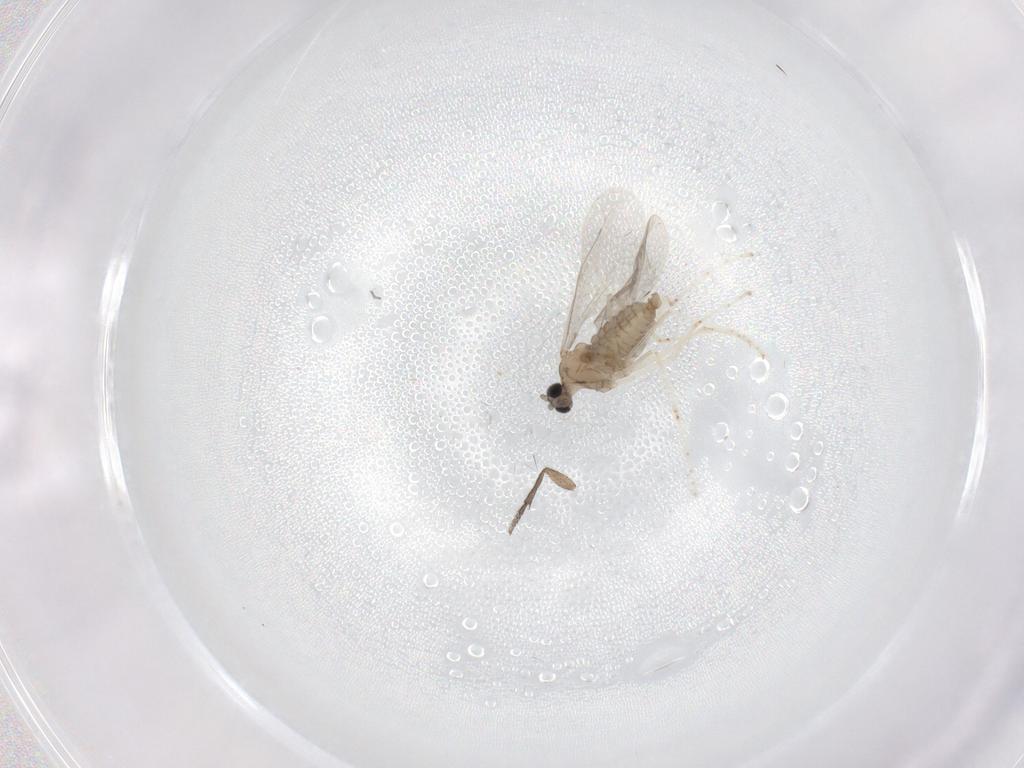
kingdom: Animalia
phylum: Arthropoda
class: Insecta
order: Diptera
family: Cecidomyiidae
